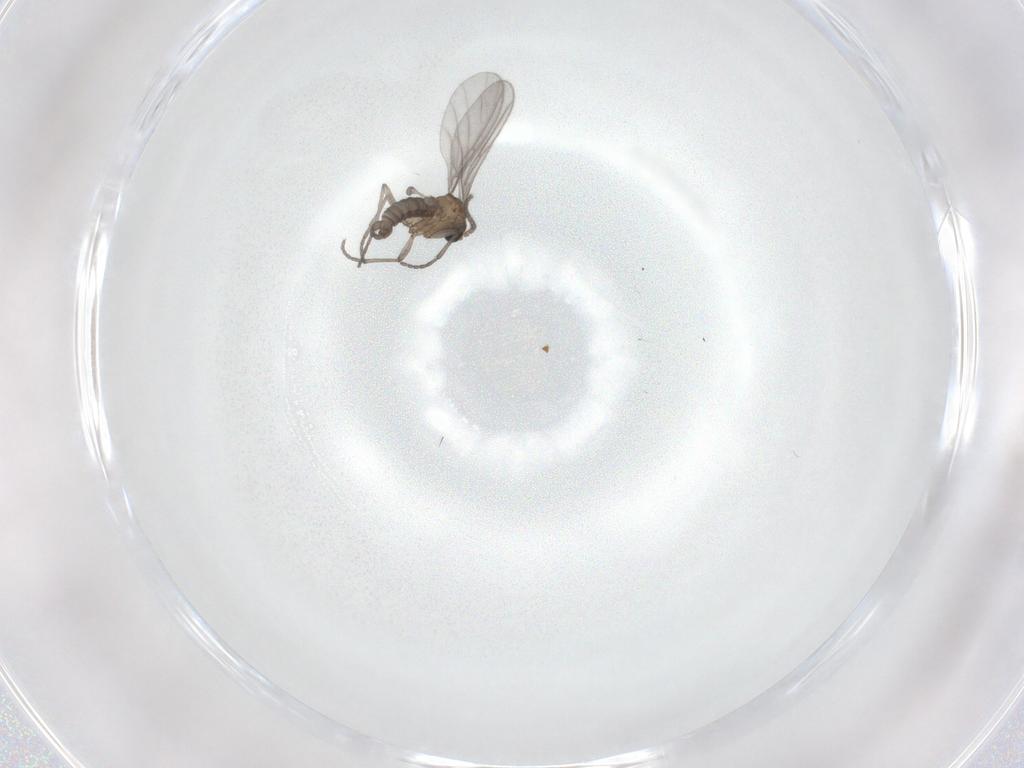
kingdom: Animalia
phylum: Arthropoda
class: Insecta
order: Diptera
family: Sciaridae
